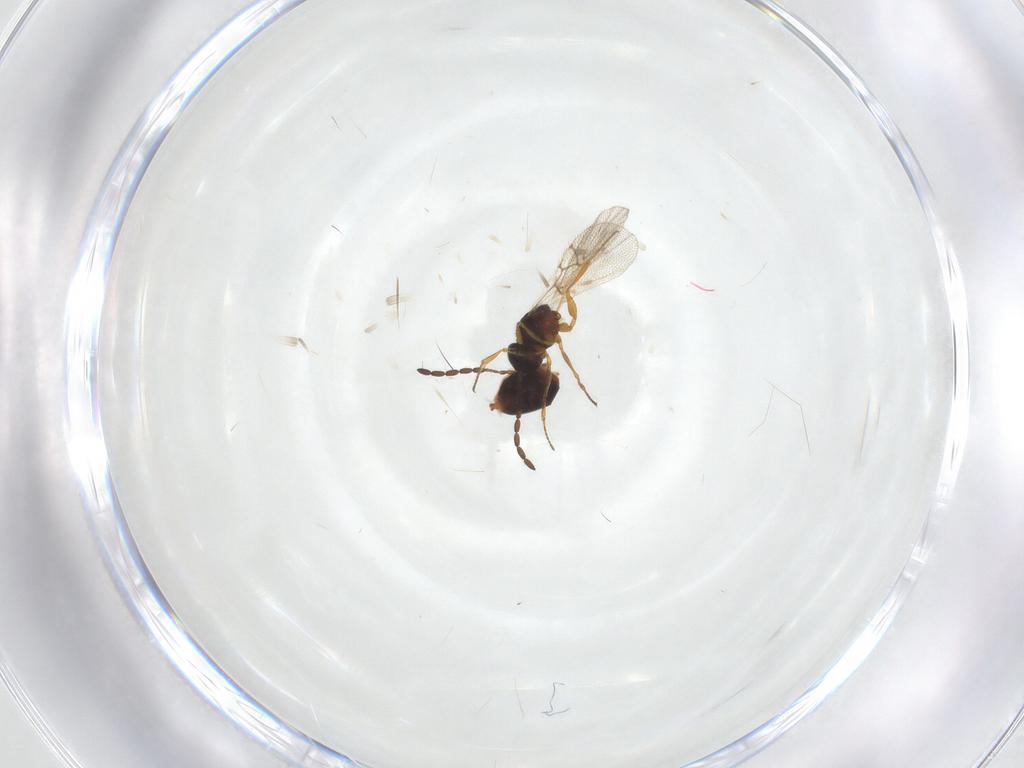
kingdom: Animalia
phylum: Arthropoda
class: Insecta
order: Hymenoptera
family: Figitidae
